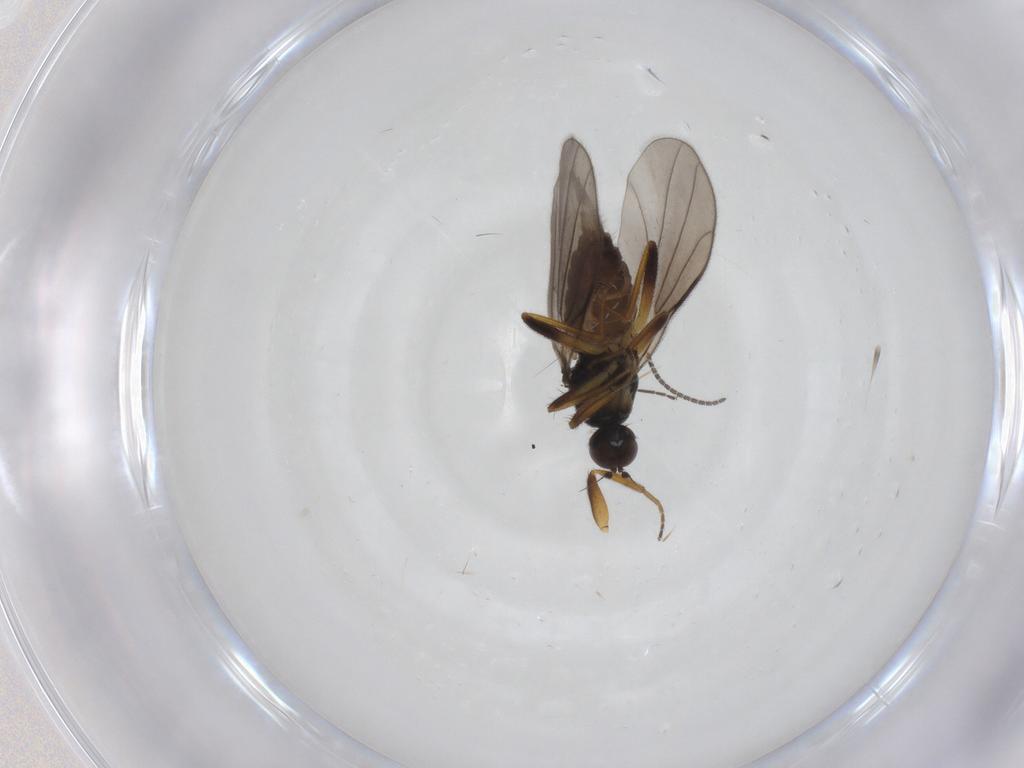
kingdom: Animalia
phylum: Arthropoda
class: Insecta
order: Diptera
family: Hybotidae
